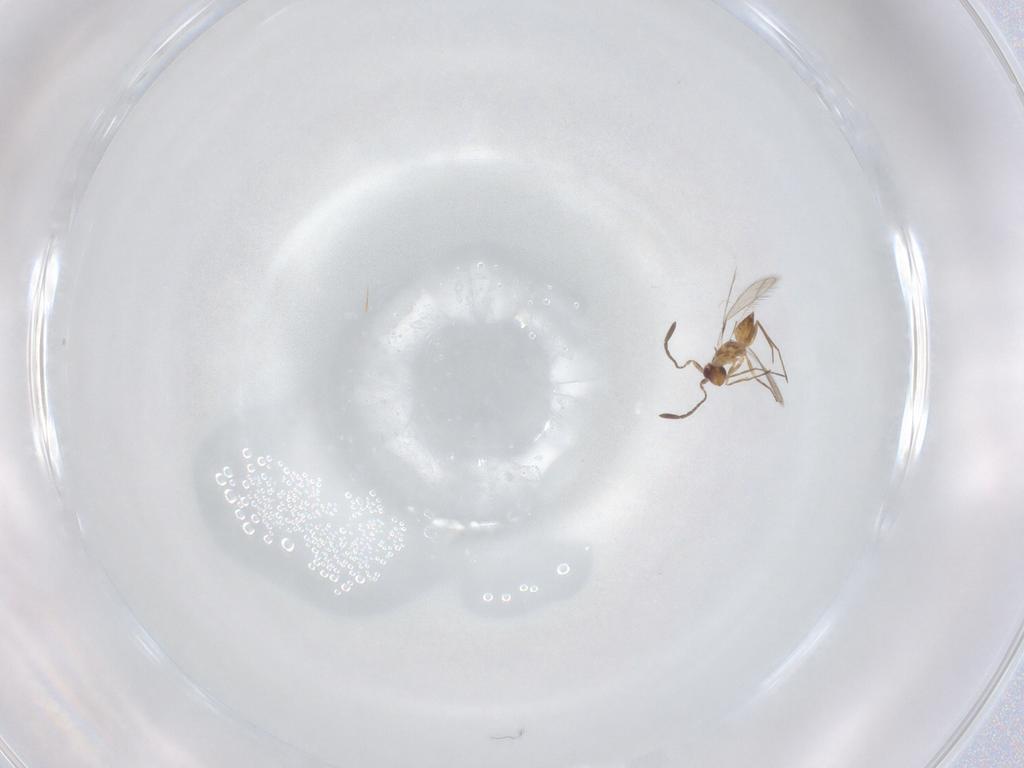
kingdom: Animalia
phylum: Arthropoda
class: Insecta
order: Hymenoptera
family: Mymaridae
